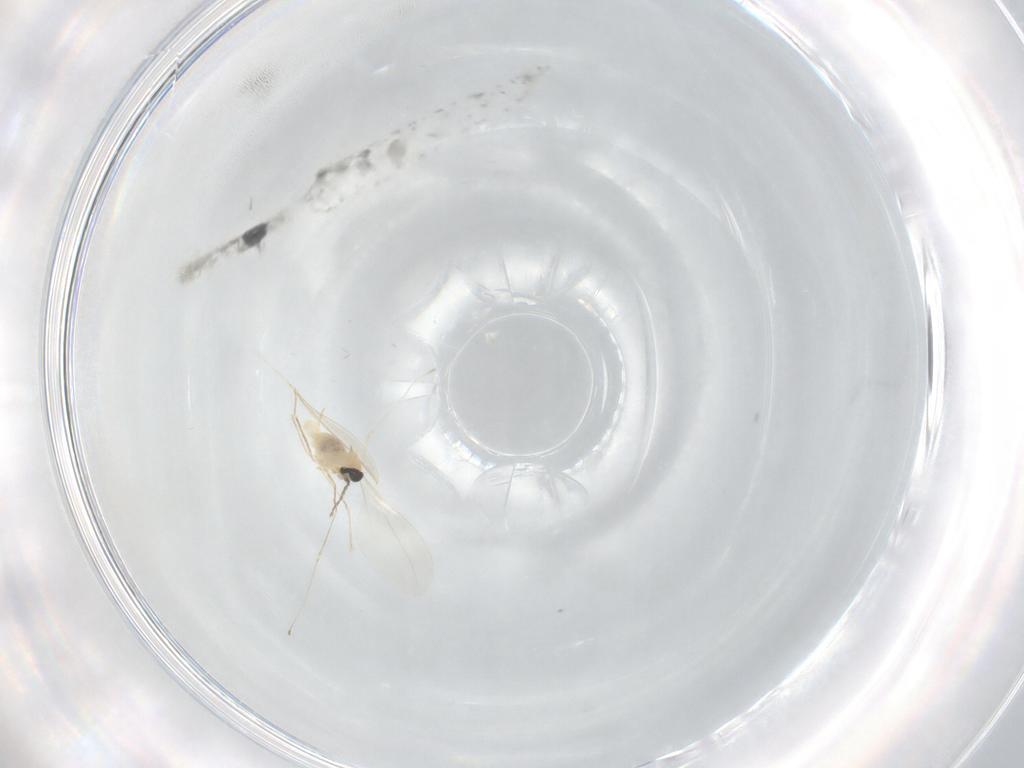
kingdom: Animalia
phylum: Arthropoda
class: Insecta
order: Diptera
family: Cecidomyiidae
